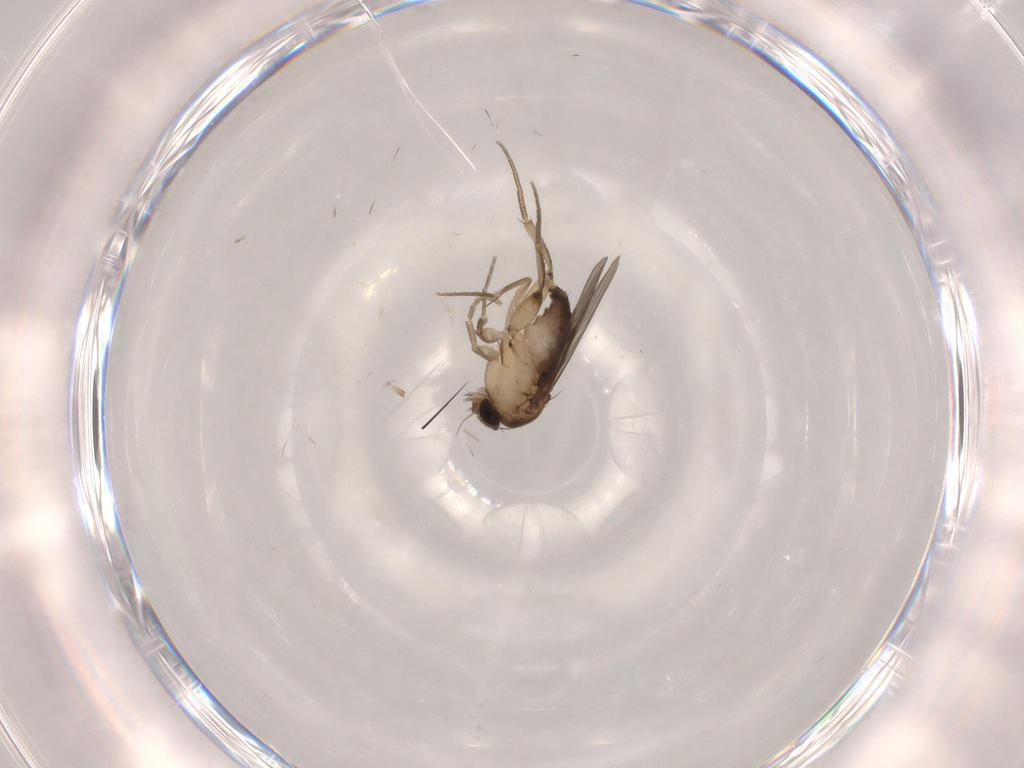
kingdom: Animalia
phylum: Arthropoda
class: Insecta
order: Diptera
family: Phoridae
